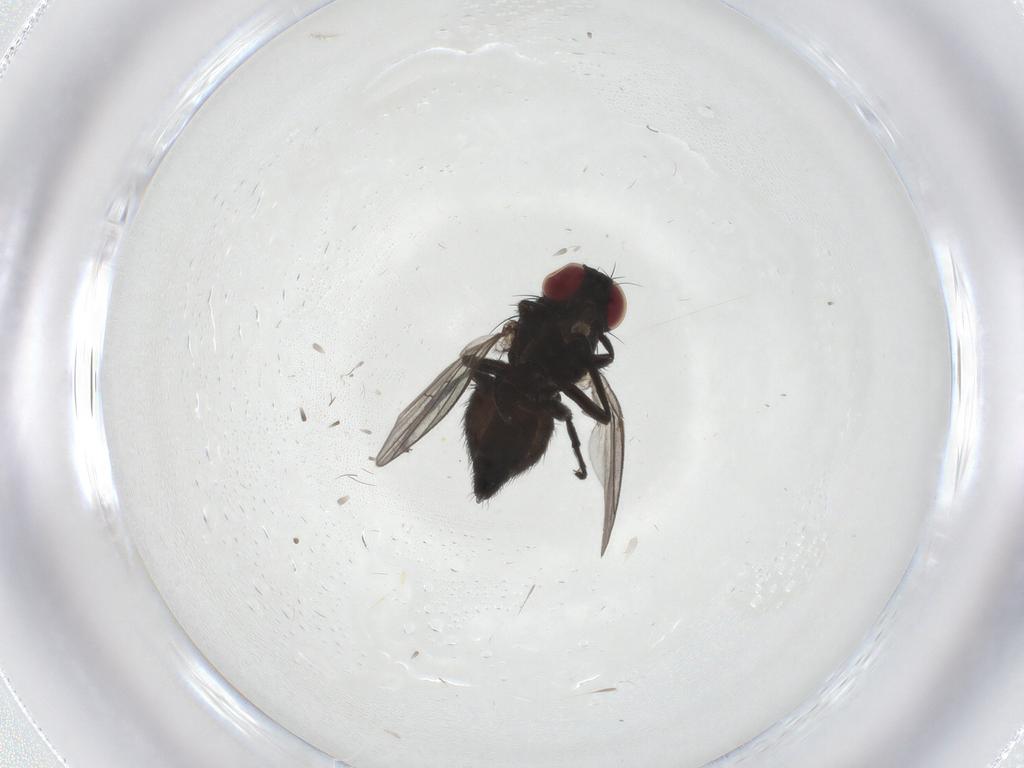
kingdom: Animalia
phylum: Arthropoda
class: Insecta
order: Diptera
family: Agromyzidae
